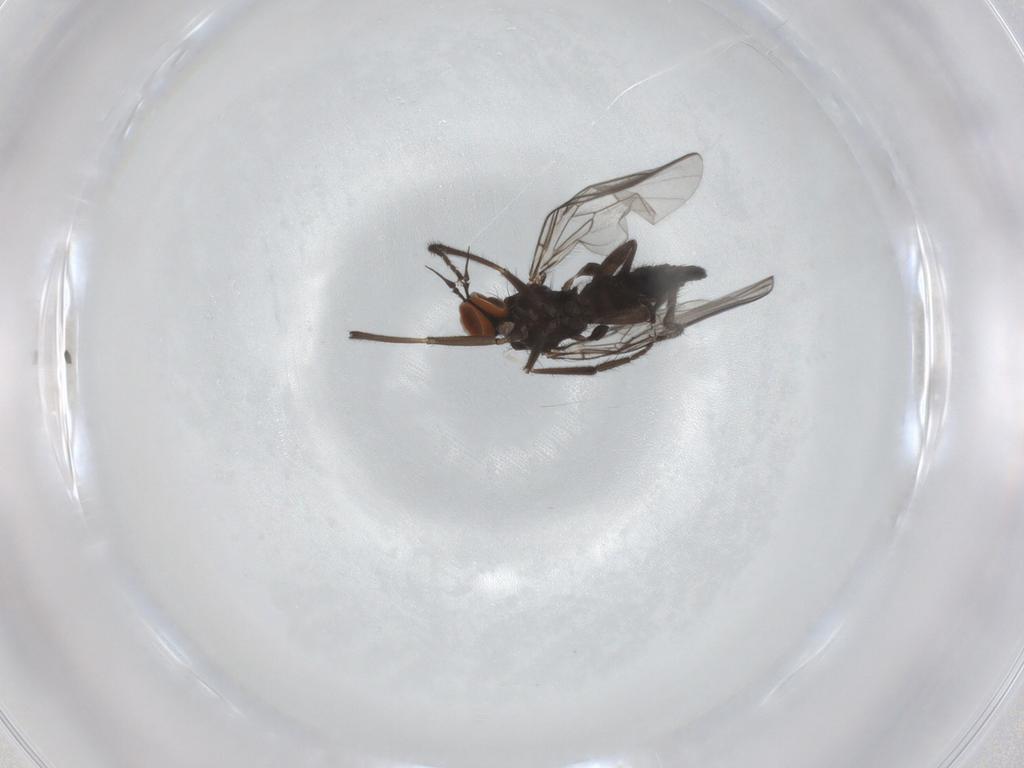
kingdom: Animalia
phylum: Arthropoda
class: Insecta
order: Diptera
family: Empididae
